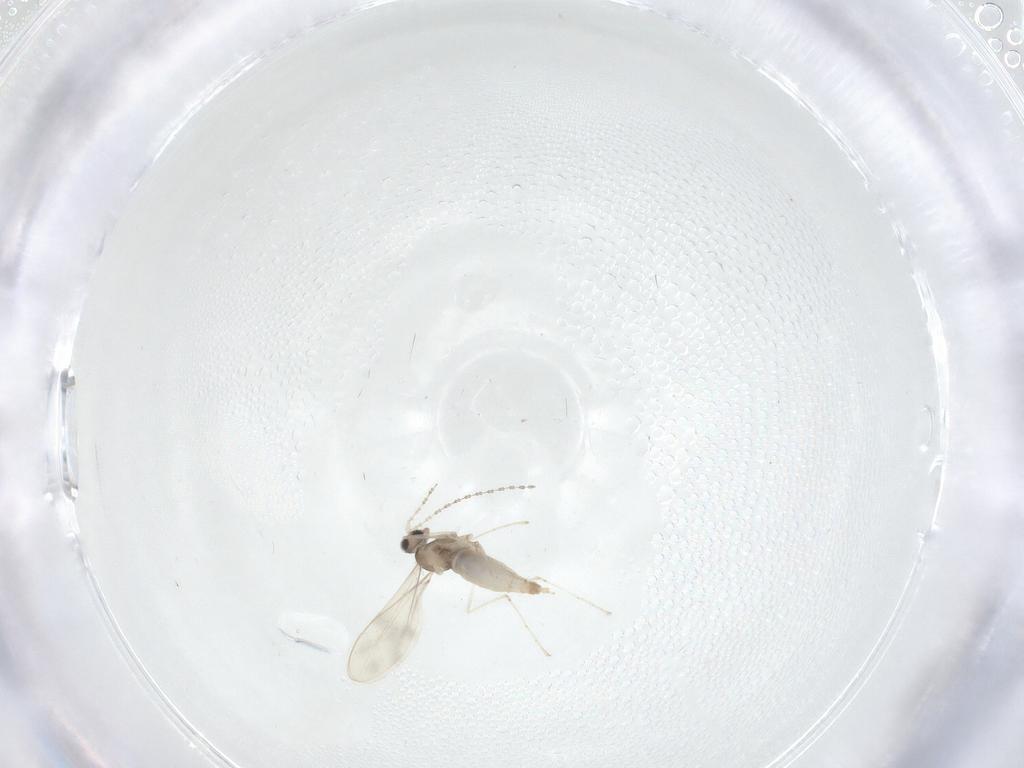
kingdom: Animalia
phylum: Arthropoda
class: Insecta
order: Diptera
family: Cecidomyiidae
